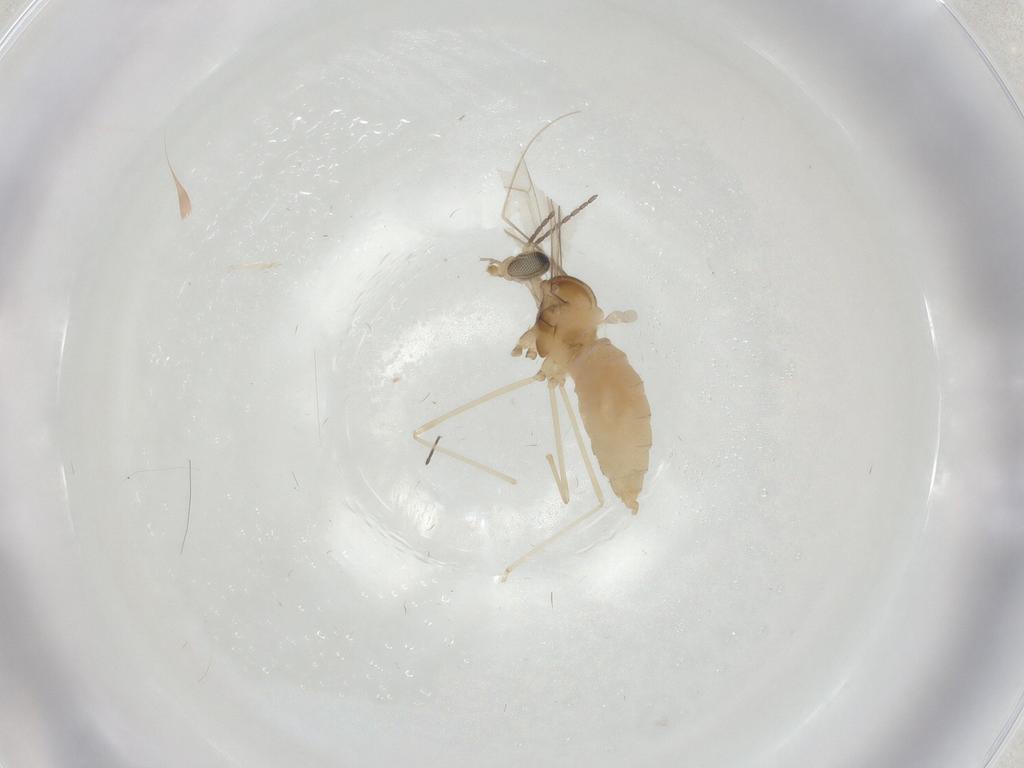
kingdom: Animalia
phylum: Arthropoda
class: Insecta
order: Diptera
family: Cecidomyiidae
